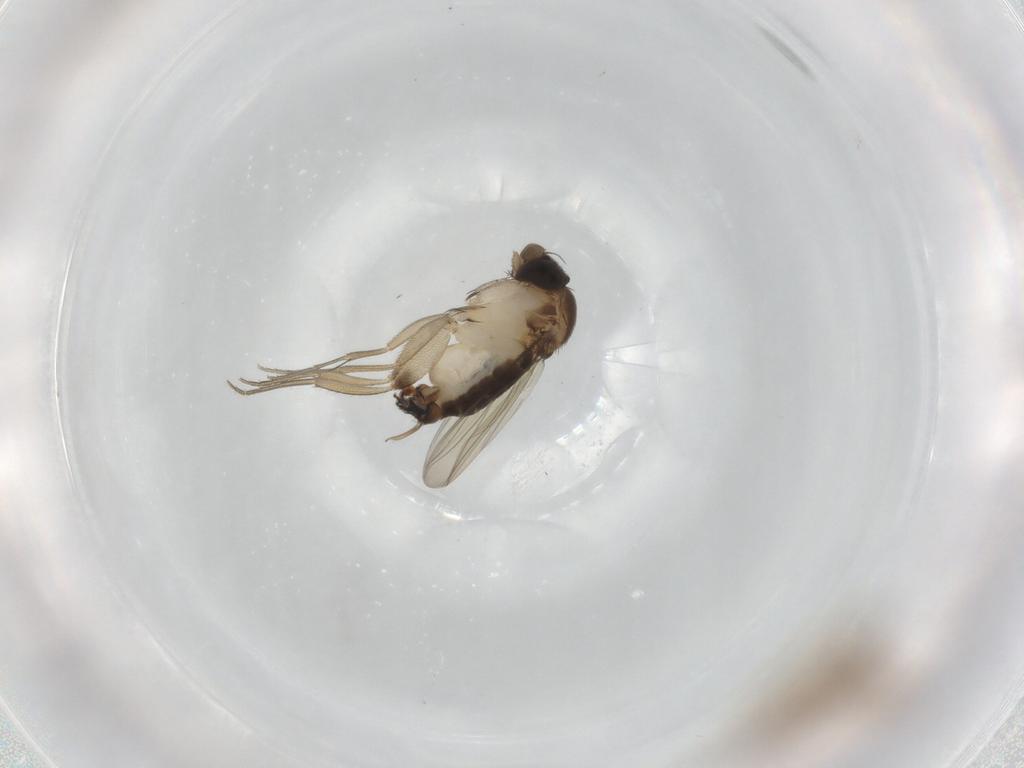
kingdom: Animalia
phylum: Arthropoda
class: Insecta
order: Diptera
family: Phoridae
